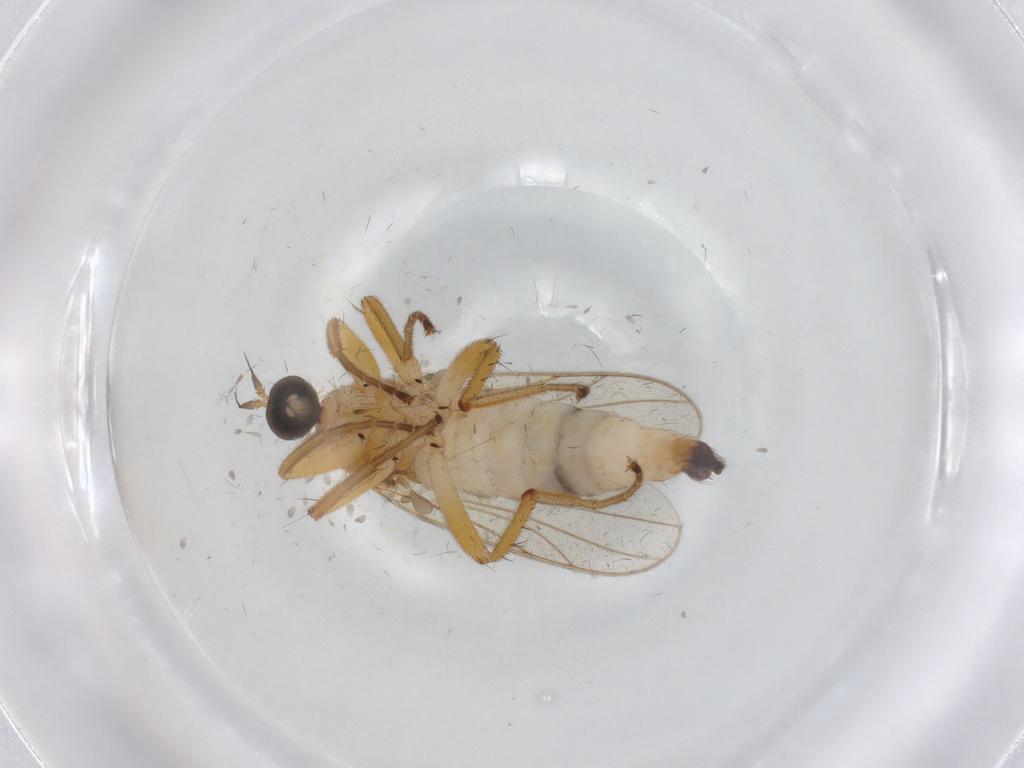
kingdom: Animalia
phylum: Arthropoda
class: Insecta
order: Diptera
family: Hybotidae
